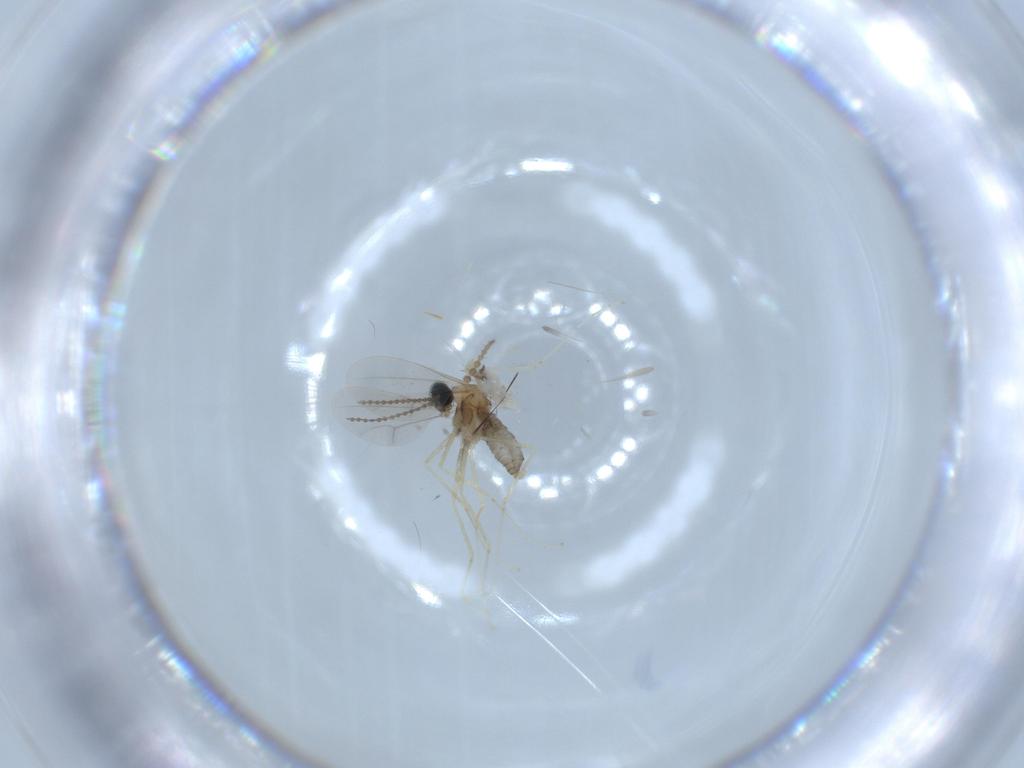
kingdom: Animalia
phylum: Arthropoda
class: Insecta
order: Diptera
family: Cecidomyiidae
